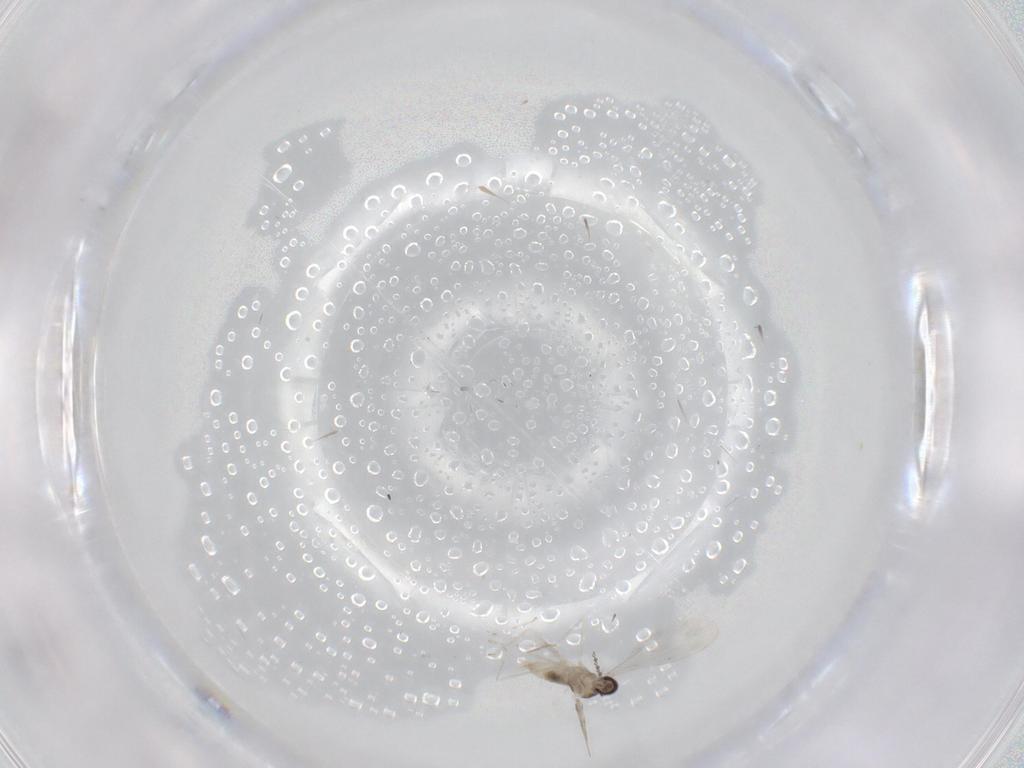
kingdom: Animalia
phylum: Arthropoda
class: Insecta
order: Diptera
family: Cecidomyiidae
